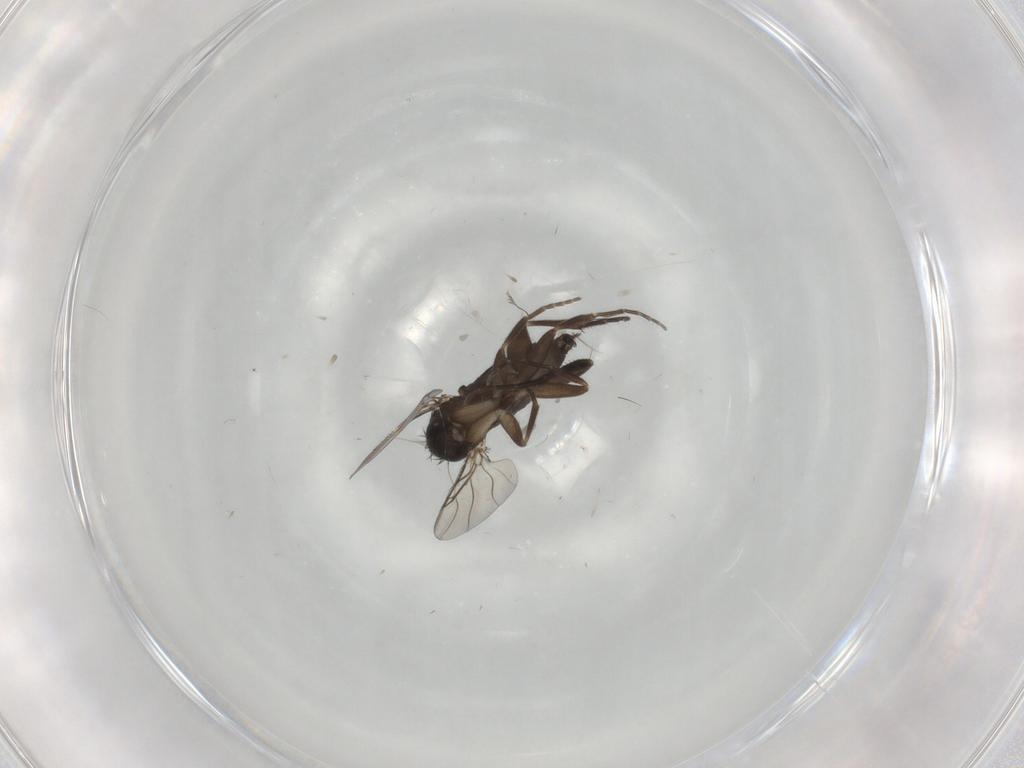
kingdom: Animalia
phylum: Arthropoda
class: Insecta
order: Diptera
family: Phoridae
